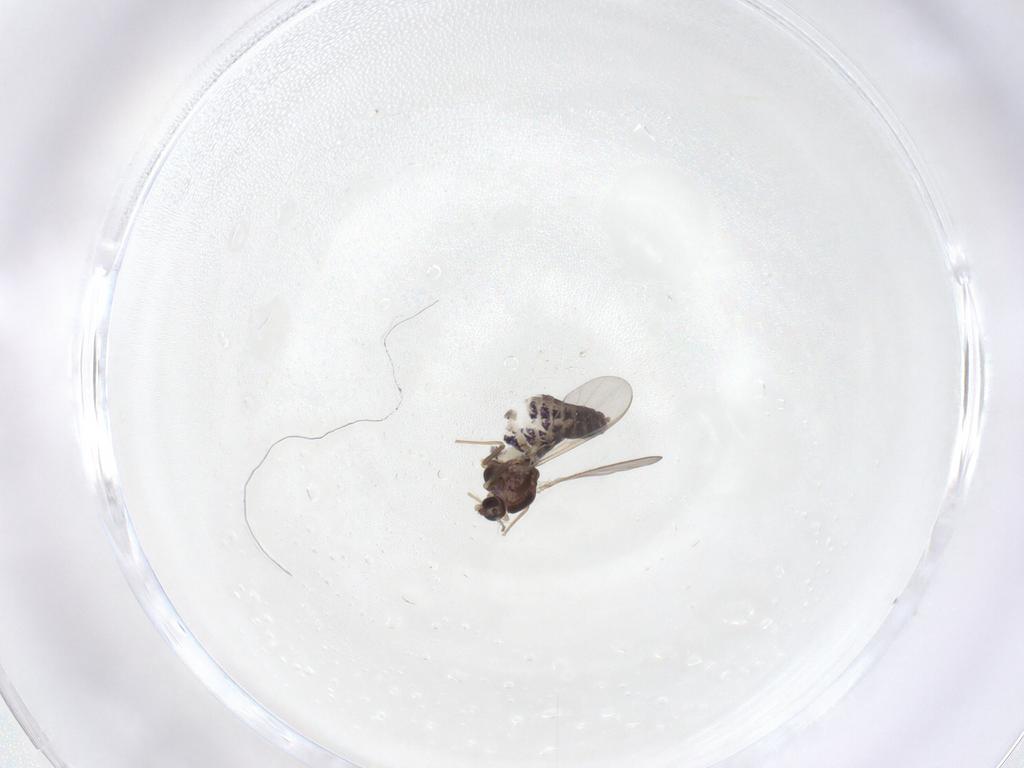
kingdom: Animalia
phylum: Arthropoda
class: Insecta
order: Diptera
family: Chironomidae
